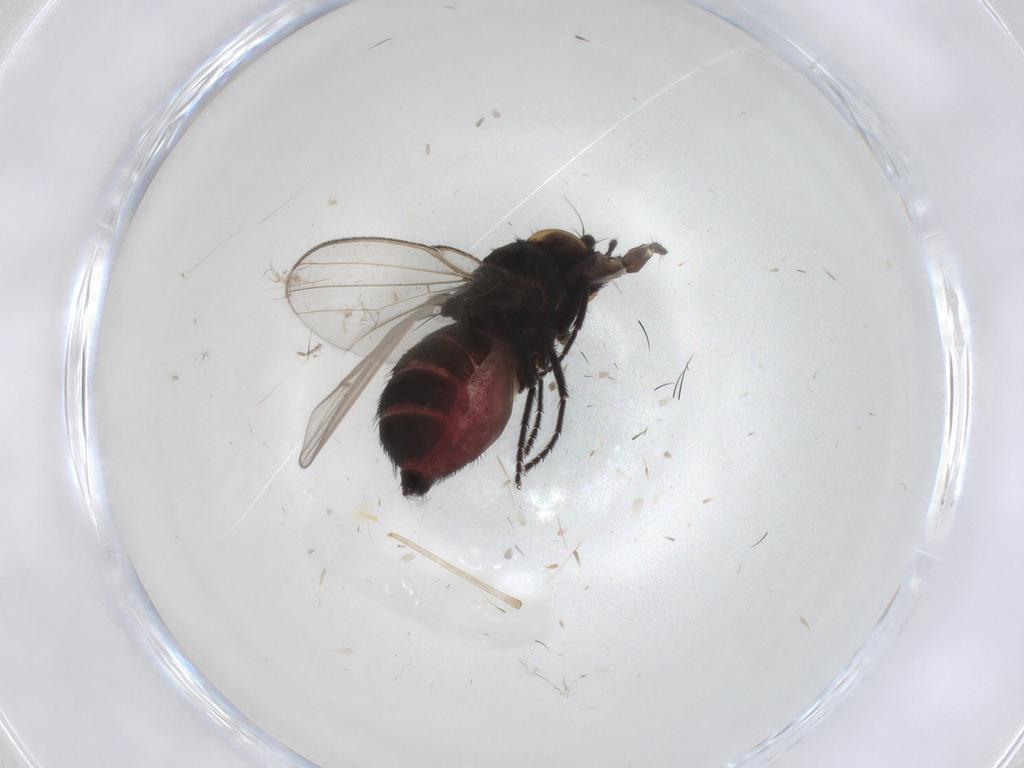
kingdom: Animalia
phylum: Arthropoda
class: Insecta
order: Diptera
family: Milichiidae
